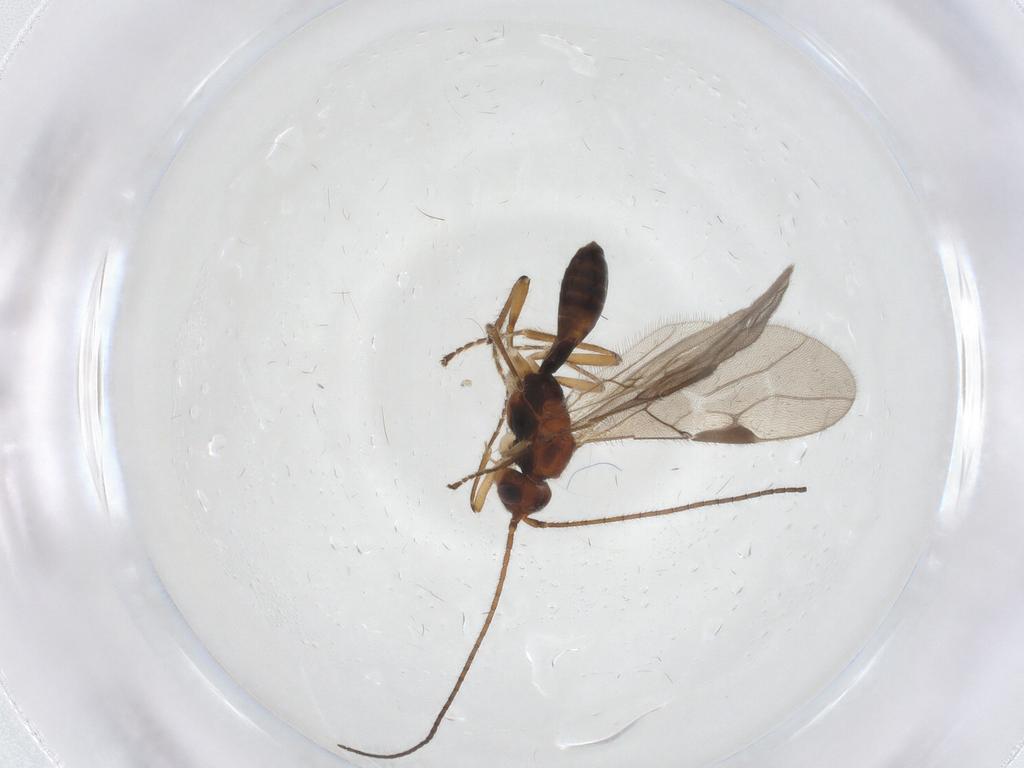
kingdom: Animalia
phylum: Arthropoda
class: Insecta
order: Hymenoptera
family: Braconidae
